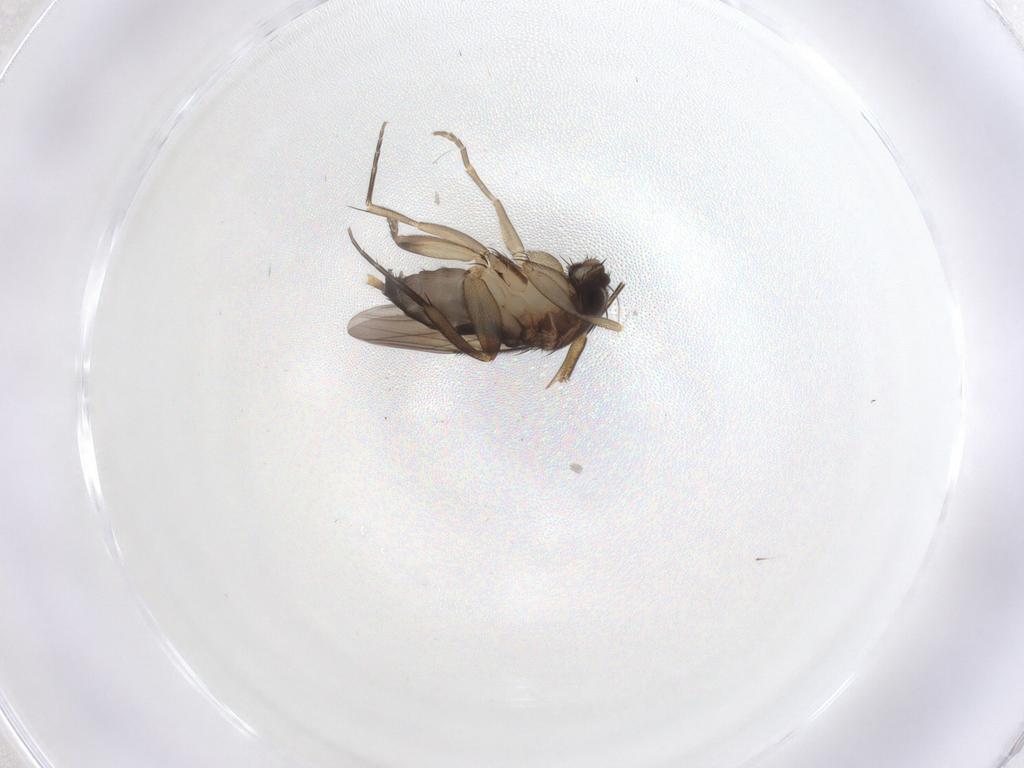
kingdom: Animalia
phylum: Arthropoda
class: Insecta
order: Diptera
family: Phoridae
